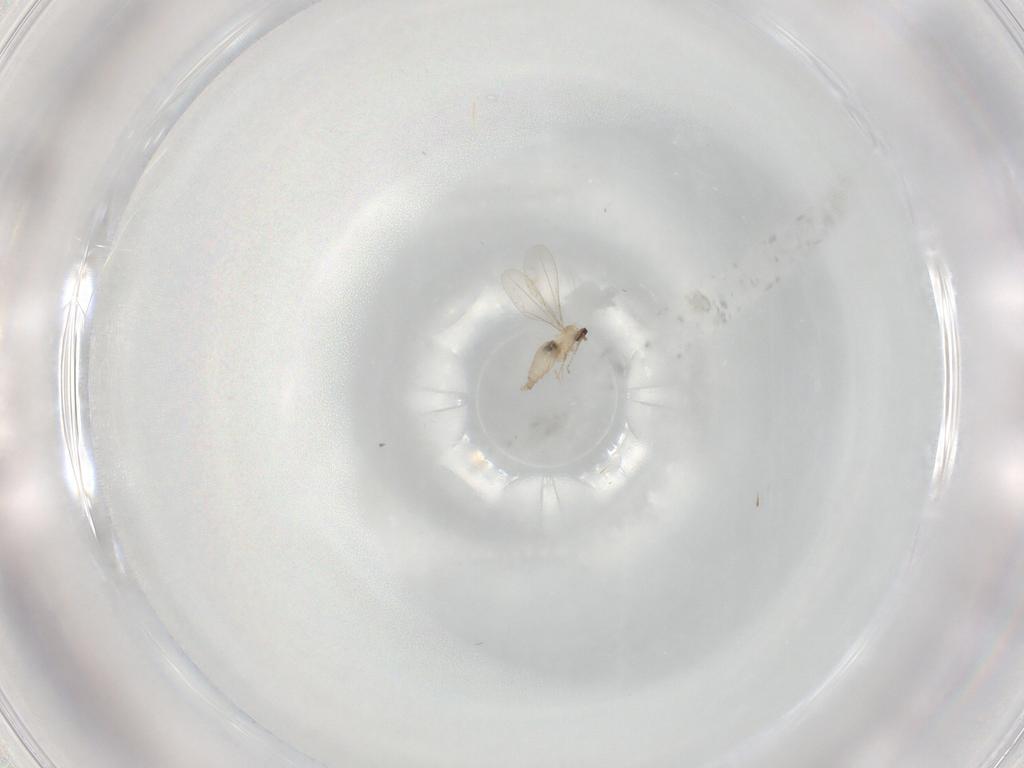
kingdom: Animalia
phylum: Arthropoda
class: Insecta
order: Diptera
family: Cecidomyiidae
